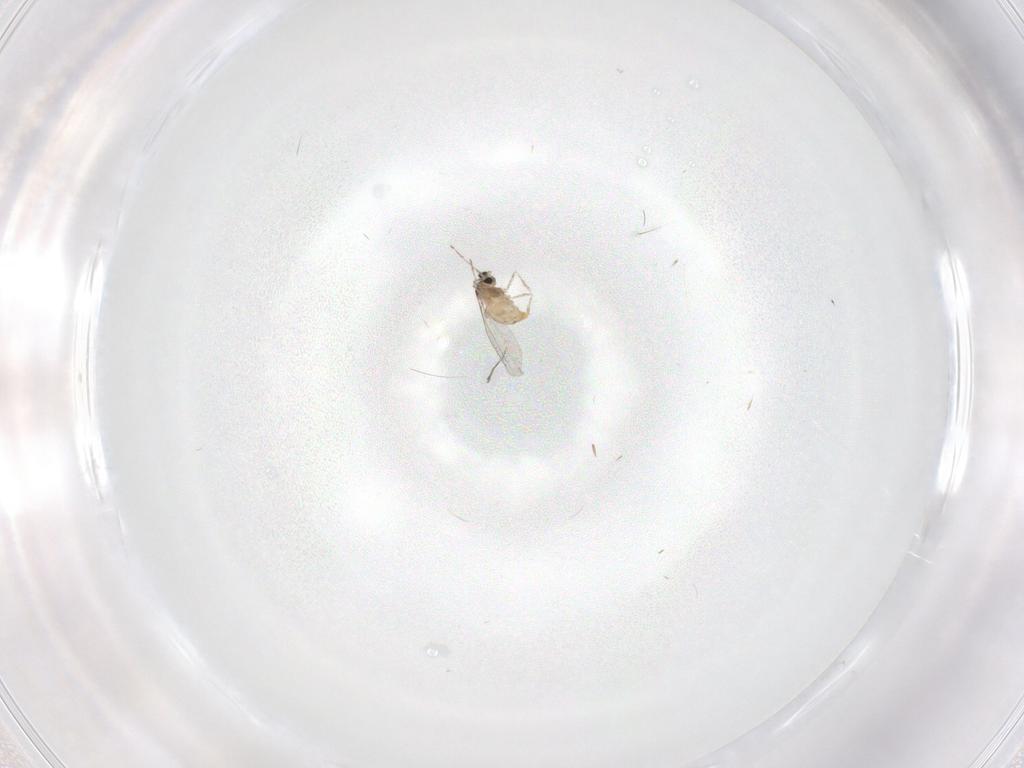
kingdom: Animalia
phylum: Arthropoda
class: Insecta
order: Diptera
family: Cecidomyiidae
